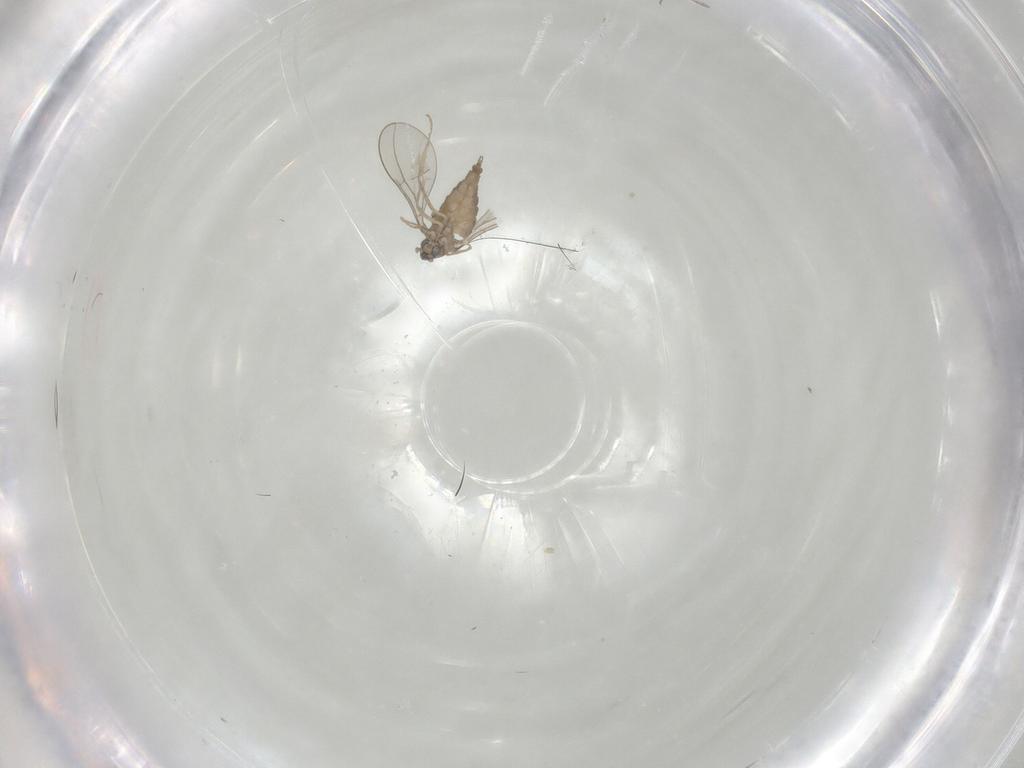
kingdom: Animalia
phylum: Arthropoda
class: Insecta
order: Diptera
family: Cecidomyiidae
